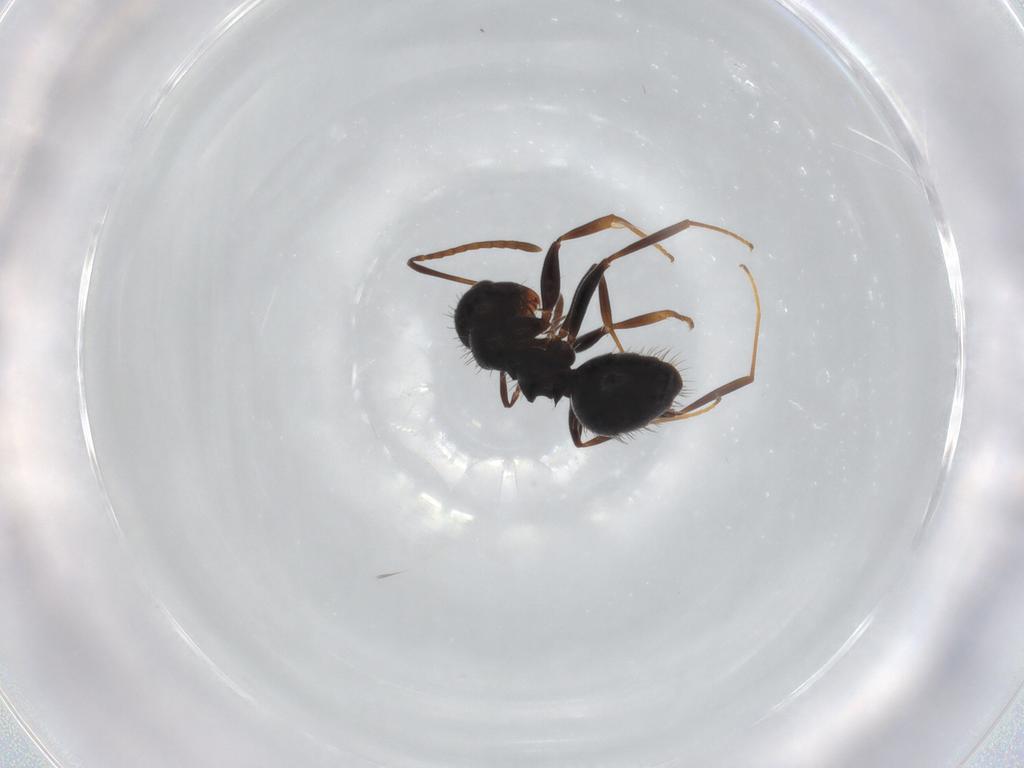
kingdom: Animalia
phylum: Arthropoda
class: Insecta
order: Hymenoptera
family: Formicidae
